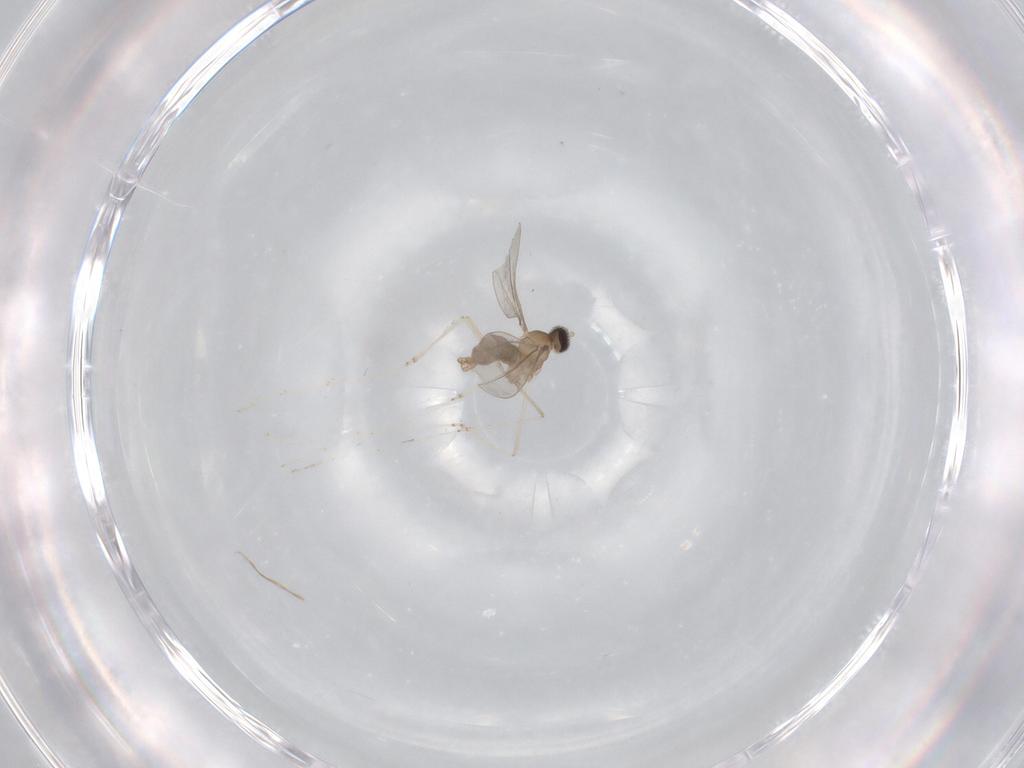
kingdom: Animalia
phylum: Arthropoda
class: Insecta
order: Diptera
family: Cecidomyiidae
